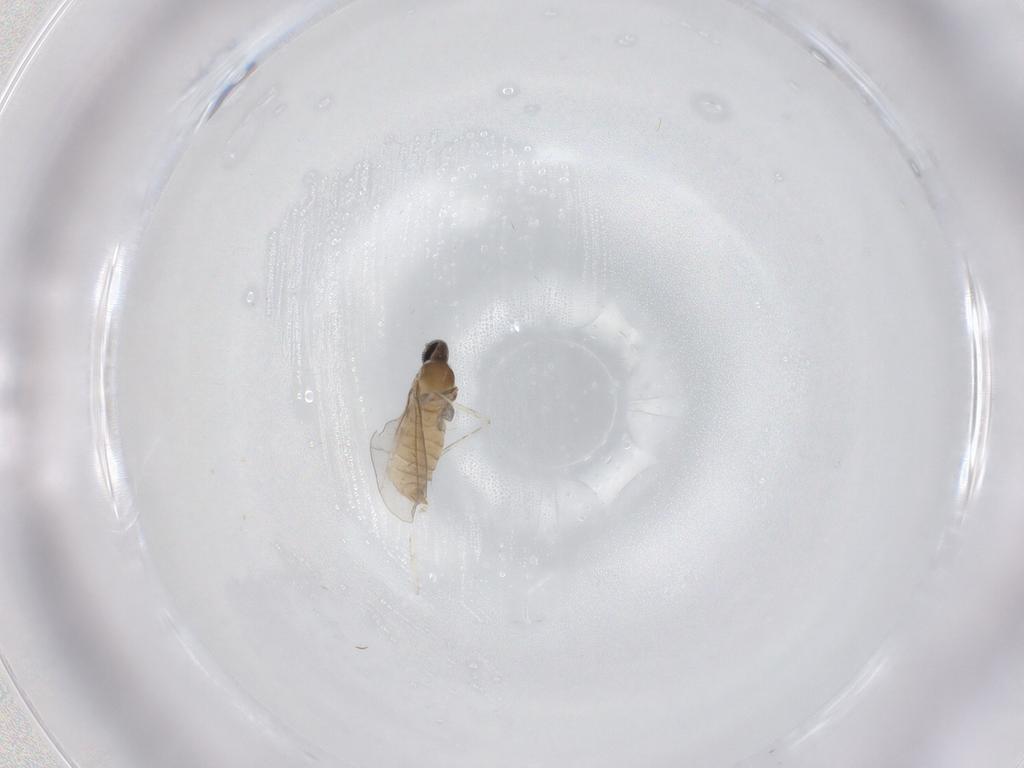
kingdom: Animalia
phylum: Arthropoda
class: Insecta
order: Diptera
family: Cecidomyiidae
